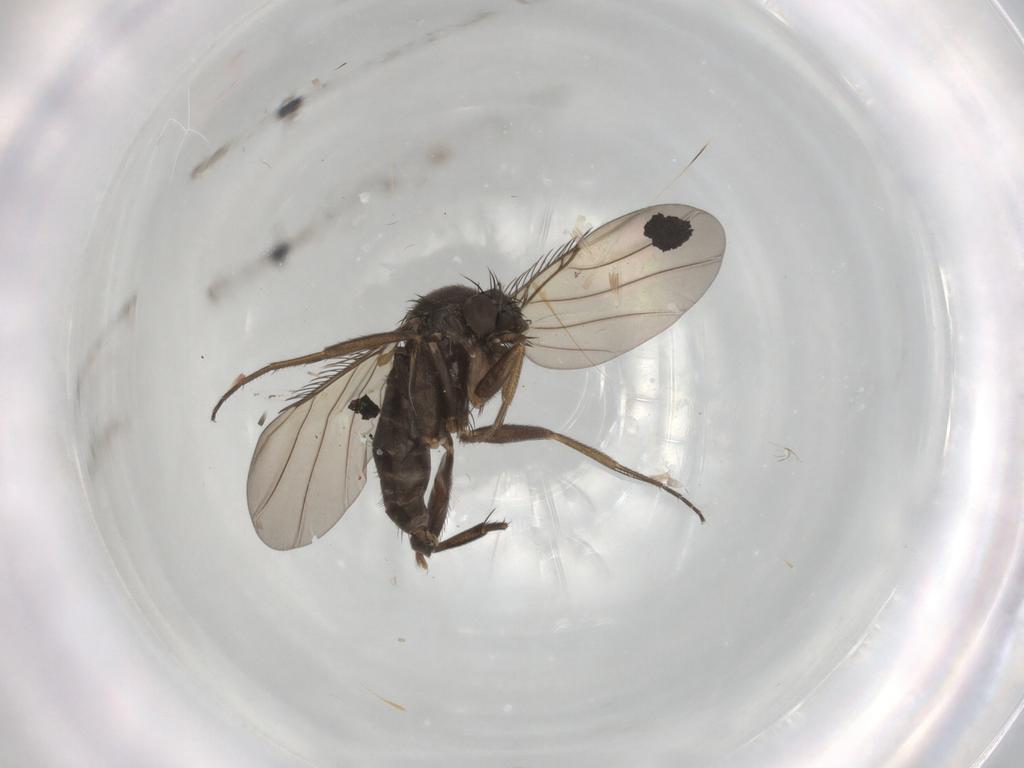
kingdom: Animalia
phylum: Arthropoda
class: Insecta
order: Diptera
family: Phoridae
